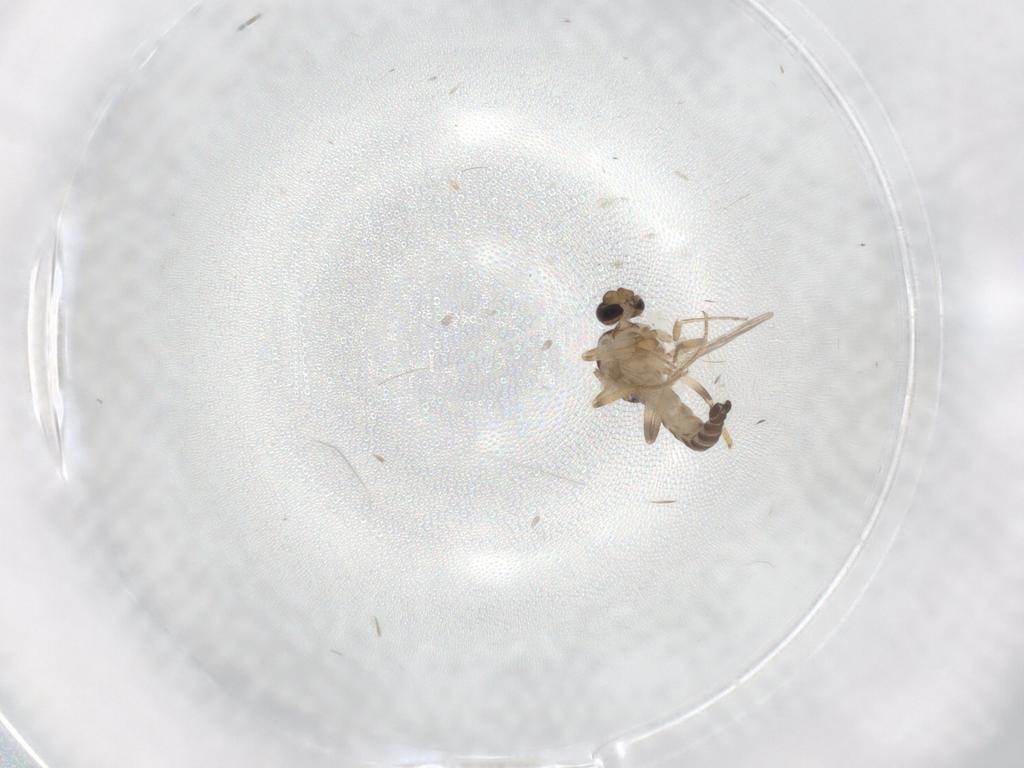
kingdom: Animalia
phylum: Arthropoda
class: Insecta
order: Diptera
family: Ceratopogonidae
